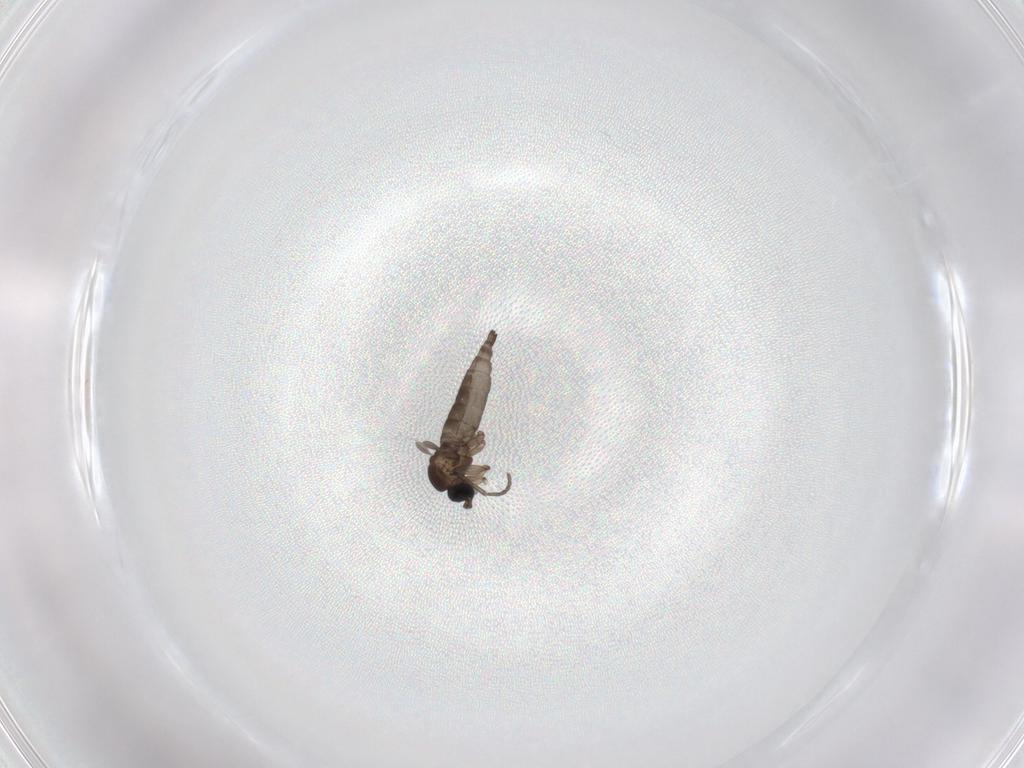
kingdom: Animalia
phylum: Arthropoda
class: Insecta
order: Diptera
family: Sciaridae
